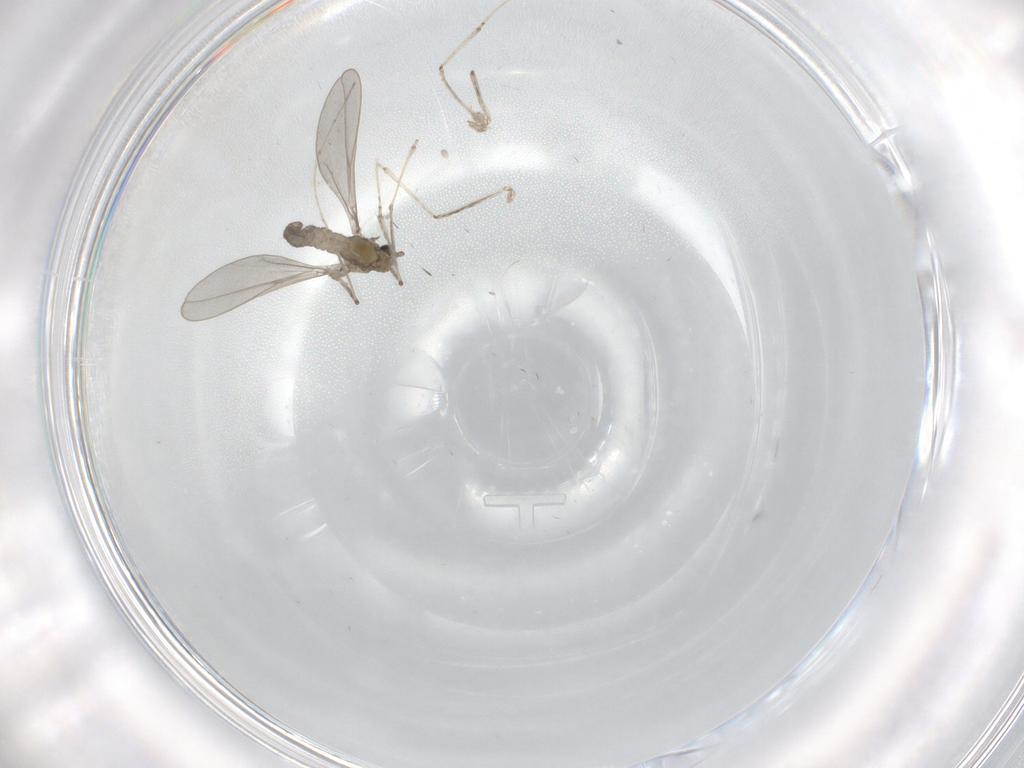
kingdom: Animalia
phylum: Arthropoda
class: Insecta
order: Diptera
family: Cecidomyiidae
